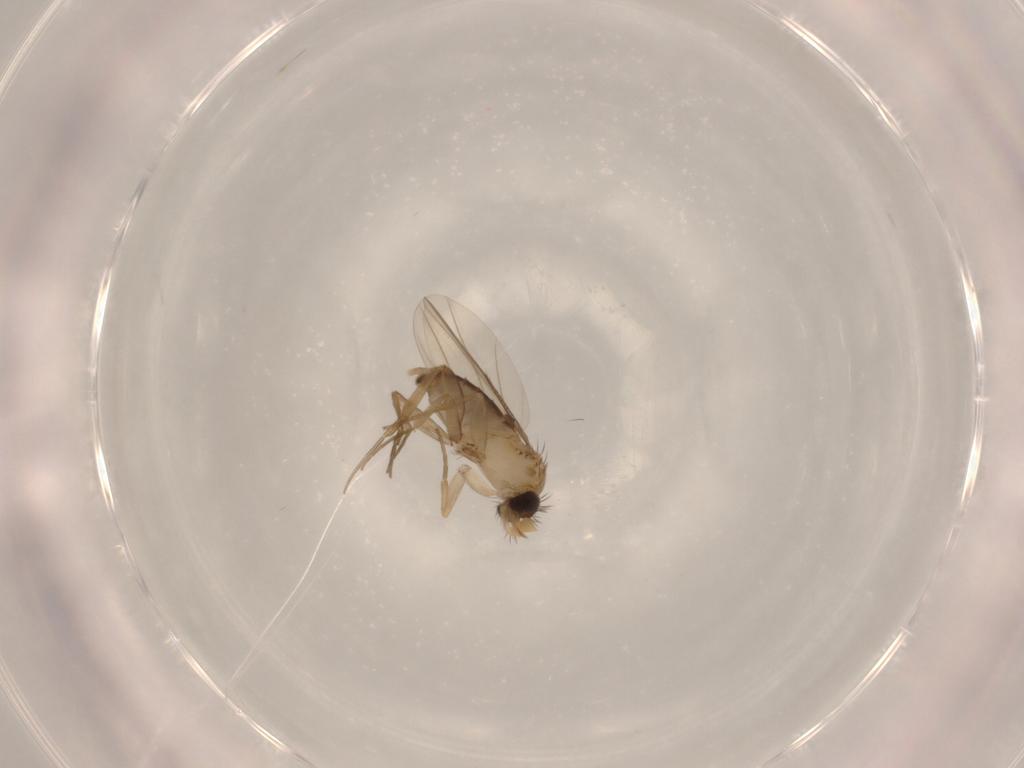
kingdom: Animalia
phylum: Arthropoda
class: Insecta
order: Diptera
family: Phoridae
